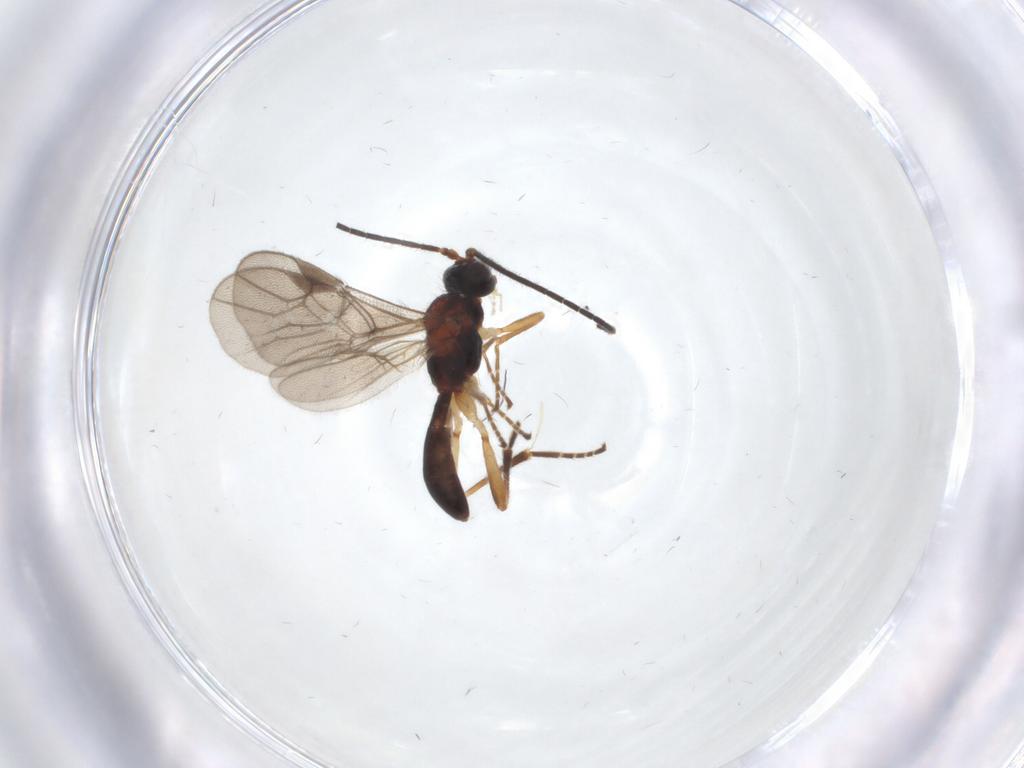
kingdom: Animalia
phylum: Arthropoda
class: Insecta
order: Hymenoptera
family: Braconidae
